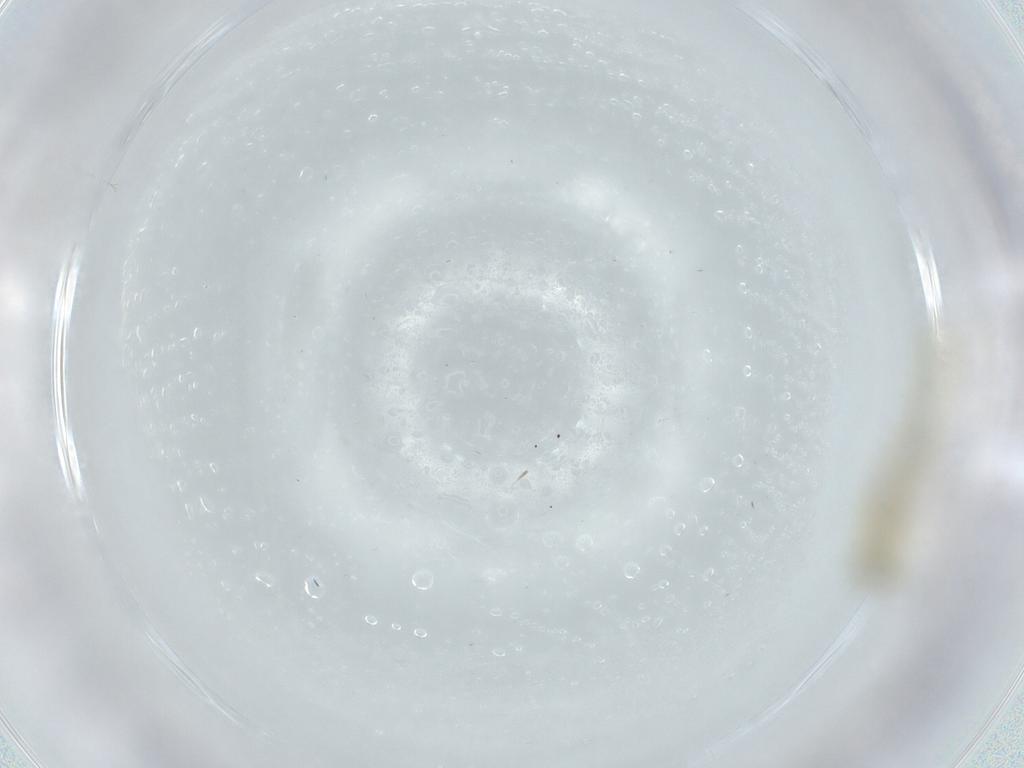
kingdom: Animalia
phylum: Arthropoda
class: Insecta
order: Diptera
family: Chironomidae
